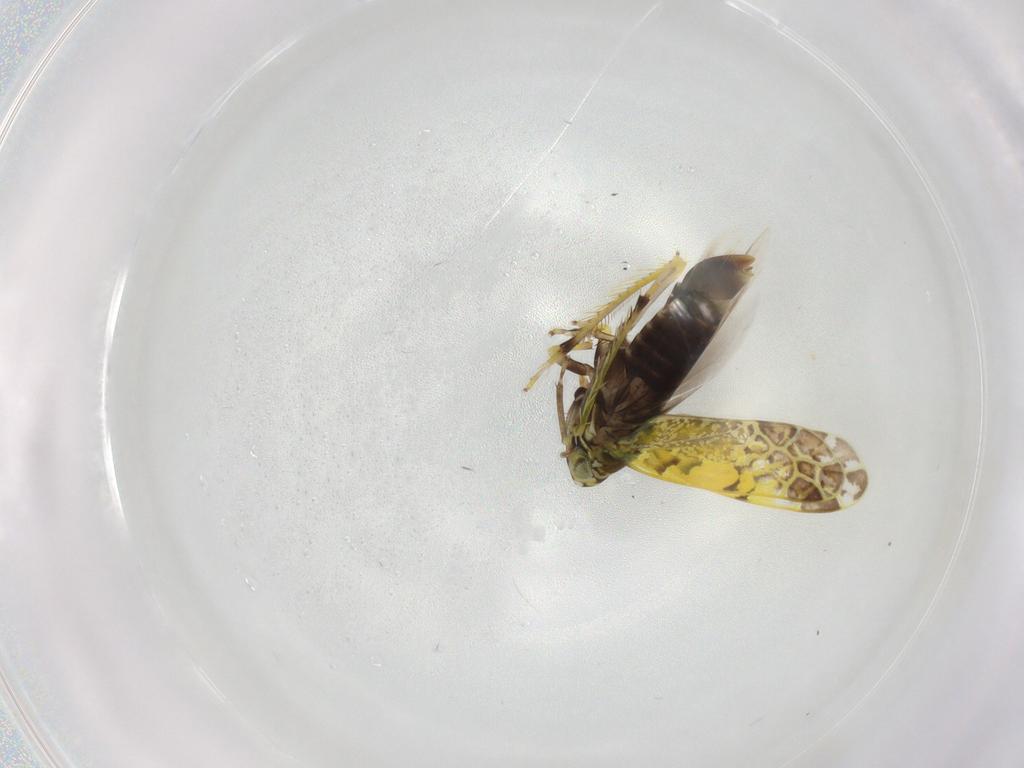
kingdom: Animalia
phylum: Arthropoda
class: Insecta
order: Hemiptera
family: Cicadellidae
